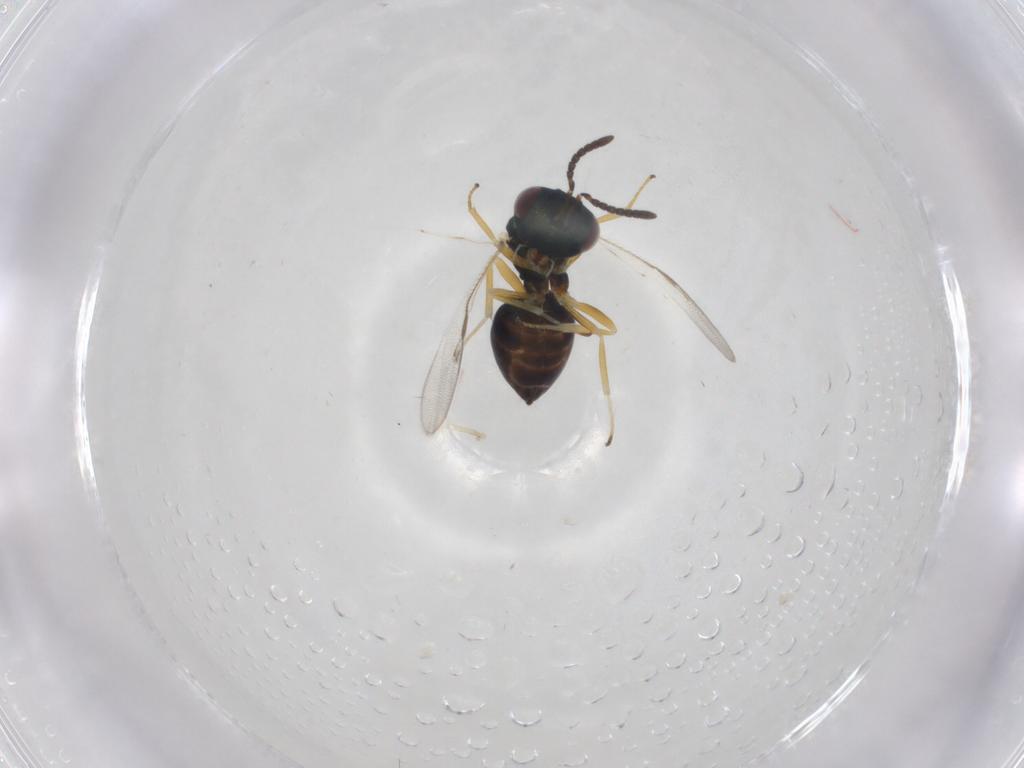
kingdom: Animalia
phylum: Arthropoda
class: Insecta
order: Hymenoptera
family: Pteromalidae
